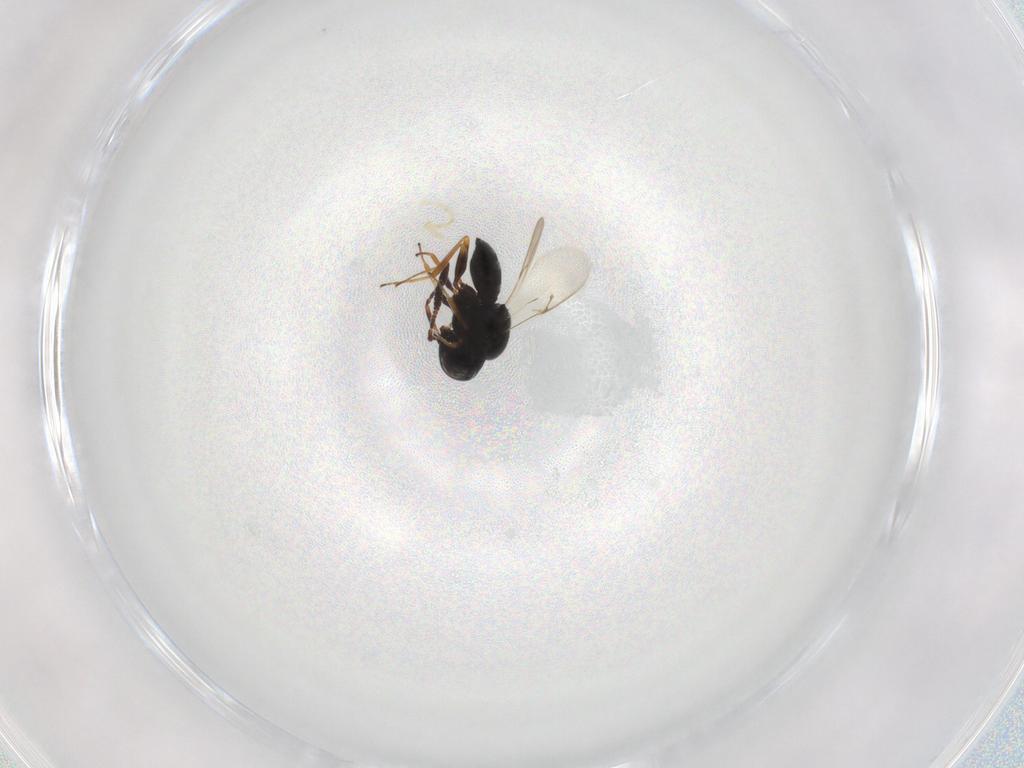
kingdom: Animalia
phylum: Arthropoda
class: Insecta
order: Hymenoptera
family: Scelionidae
